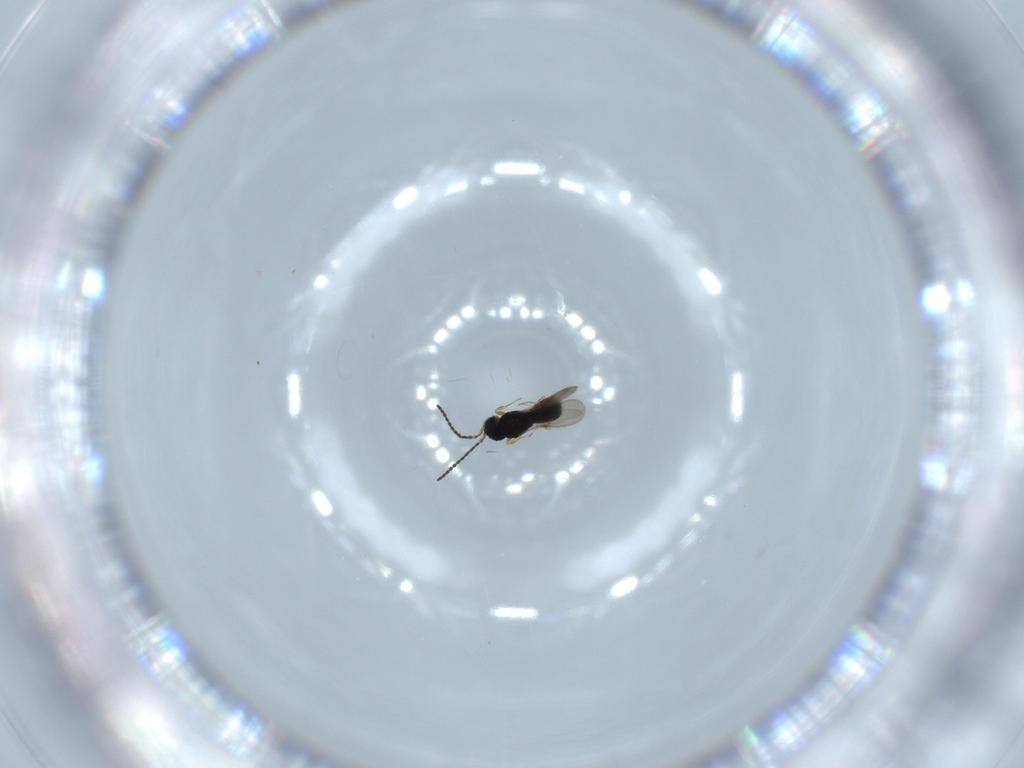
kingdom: Animalia
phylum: Arthropoda
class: Insecta
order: Hymenoptera
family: Scelionidae
